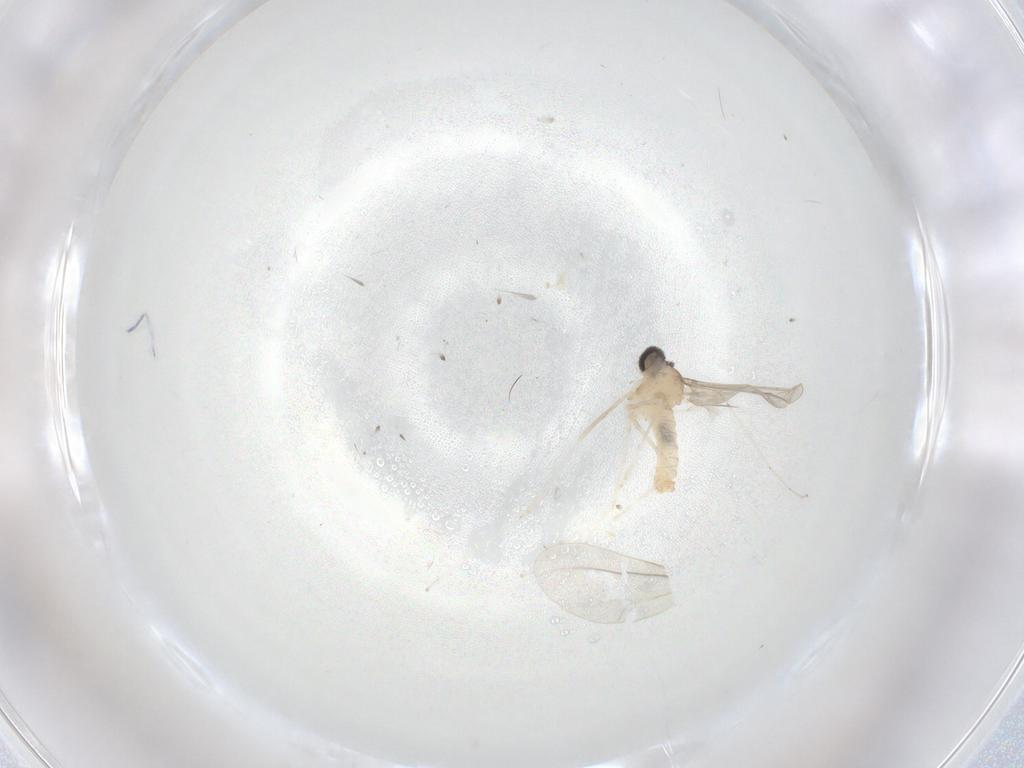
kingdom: Animalia
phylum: Arthropoda
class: Insecta
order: Diptera
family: Cecidomyiidae
